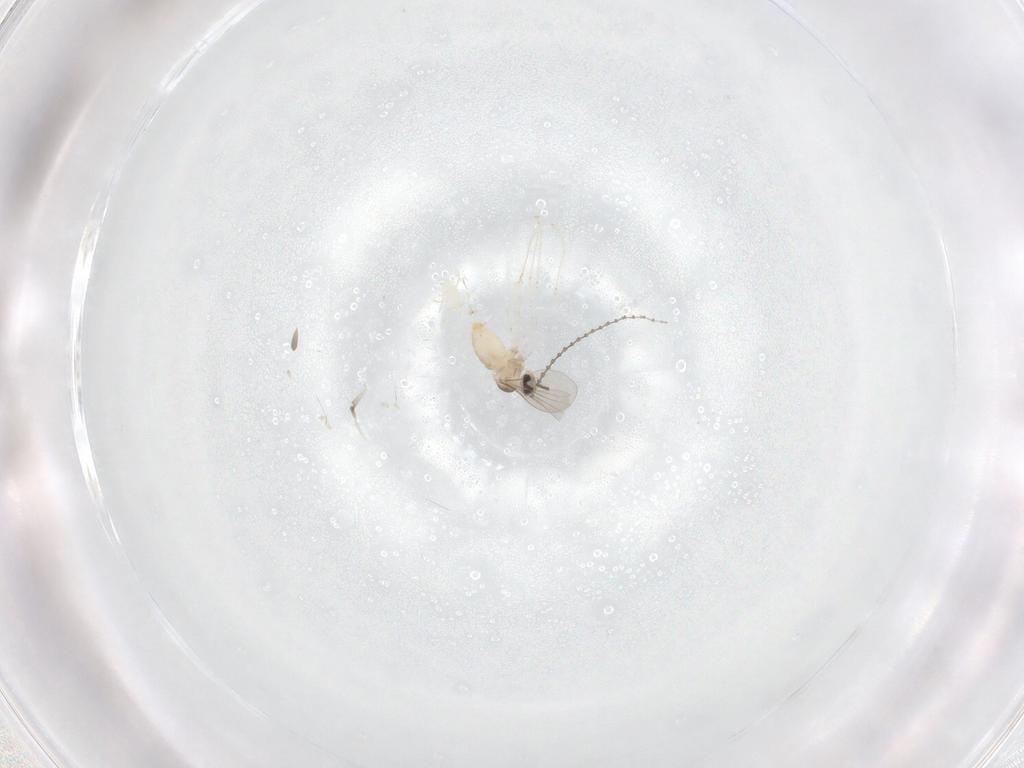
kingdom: Animalia
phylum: Arthropoda
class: Insecta
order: Diptera
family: Cecidomyiidae
